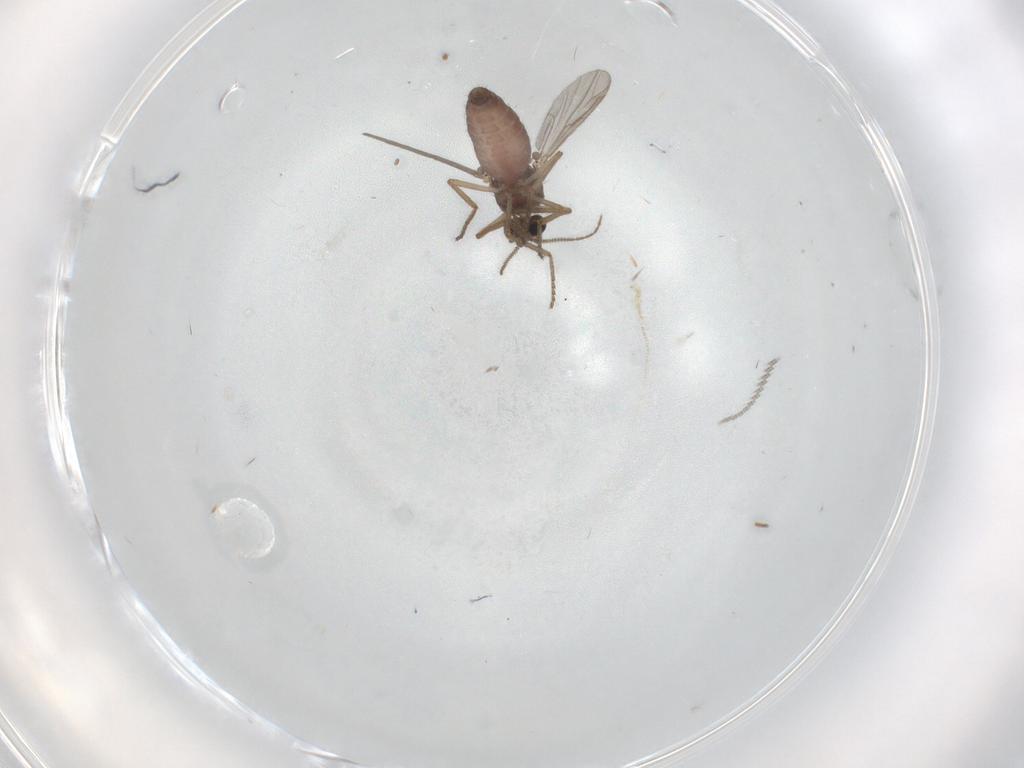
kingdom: Animalia
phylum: Arthropoda
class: Insecta
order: Diptera
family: Ceratopogonidae
